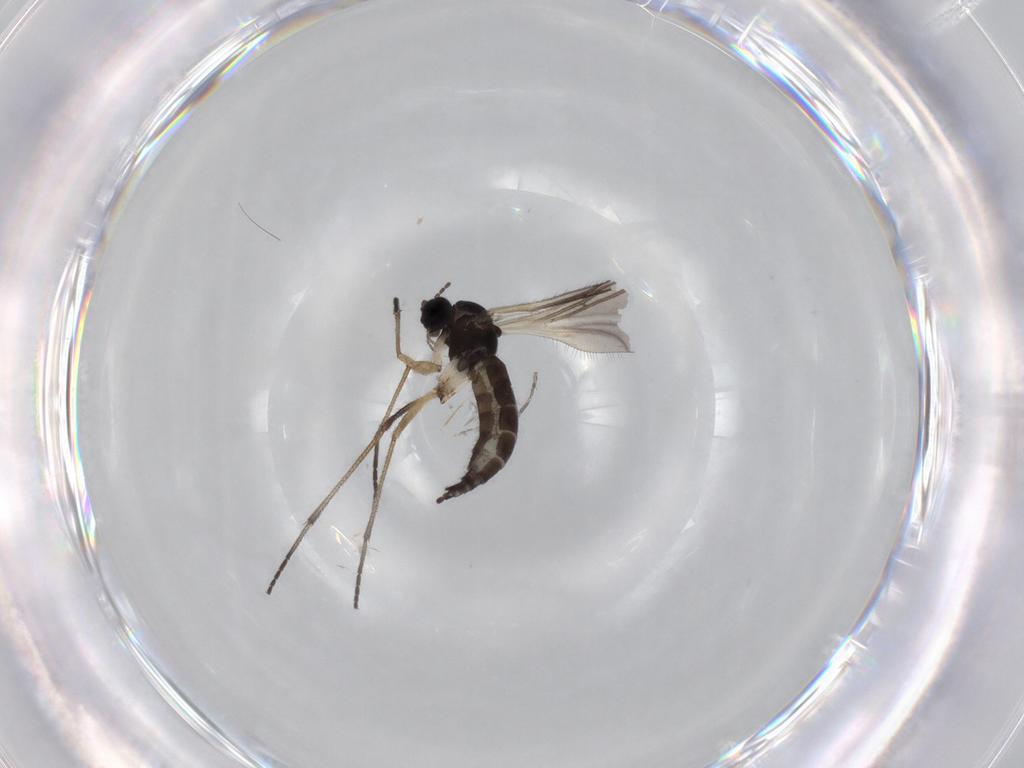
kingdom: Animalia
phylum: Arthropoda
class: Insecta
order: Diptera
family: Sciaridae
